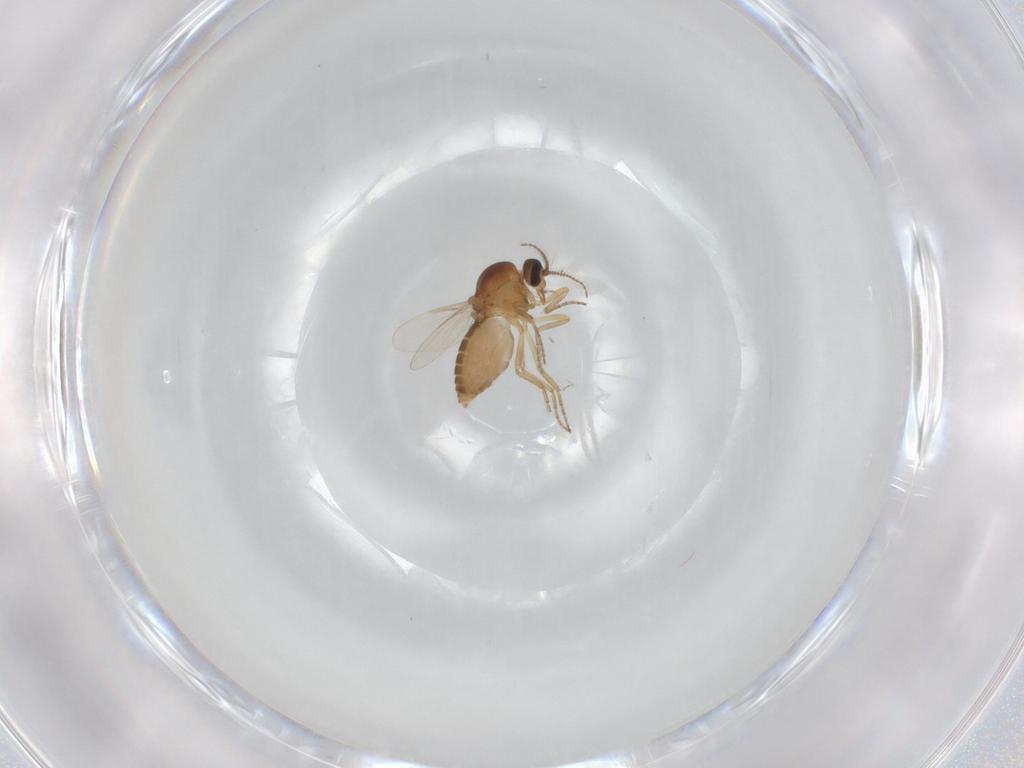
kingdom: Animalia
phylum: Arthropoda
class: Insecta
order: Diptera
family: Ceratopogonidae
